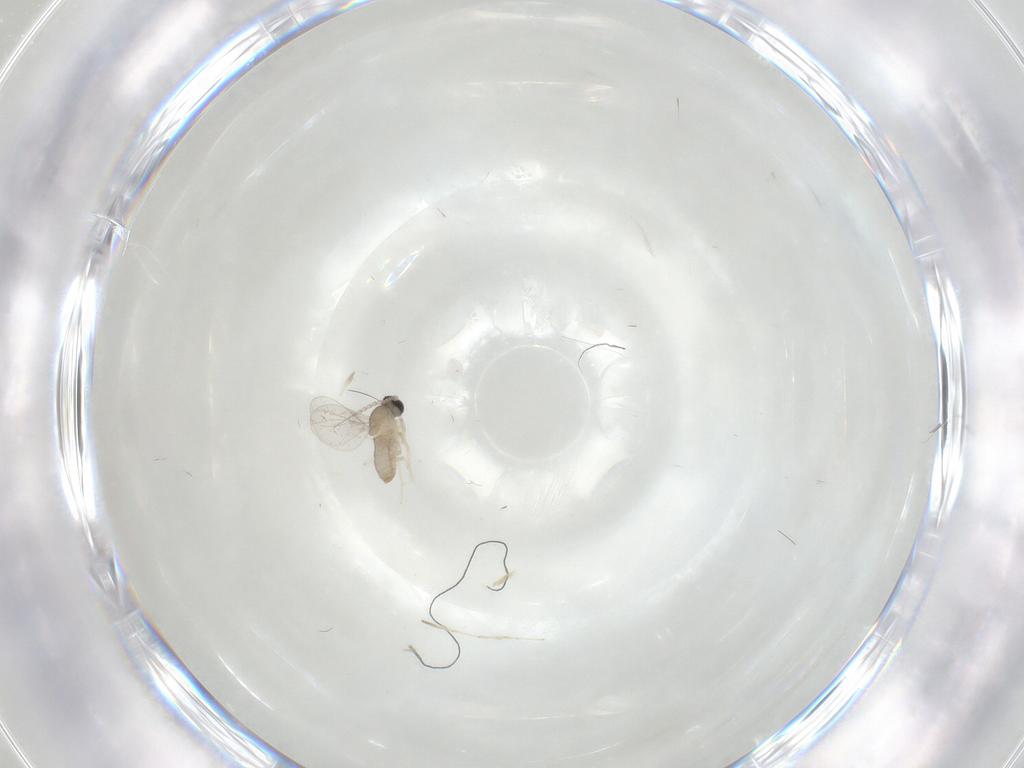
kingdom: Animalia
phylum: Arthropoda
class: Insecta
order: Diptera
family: Cecidomyiidae
